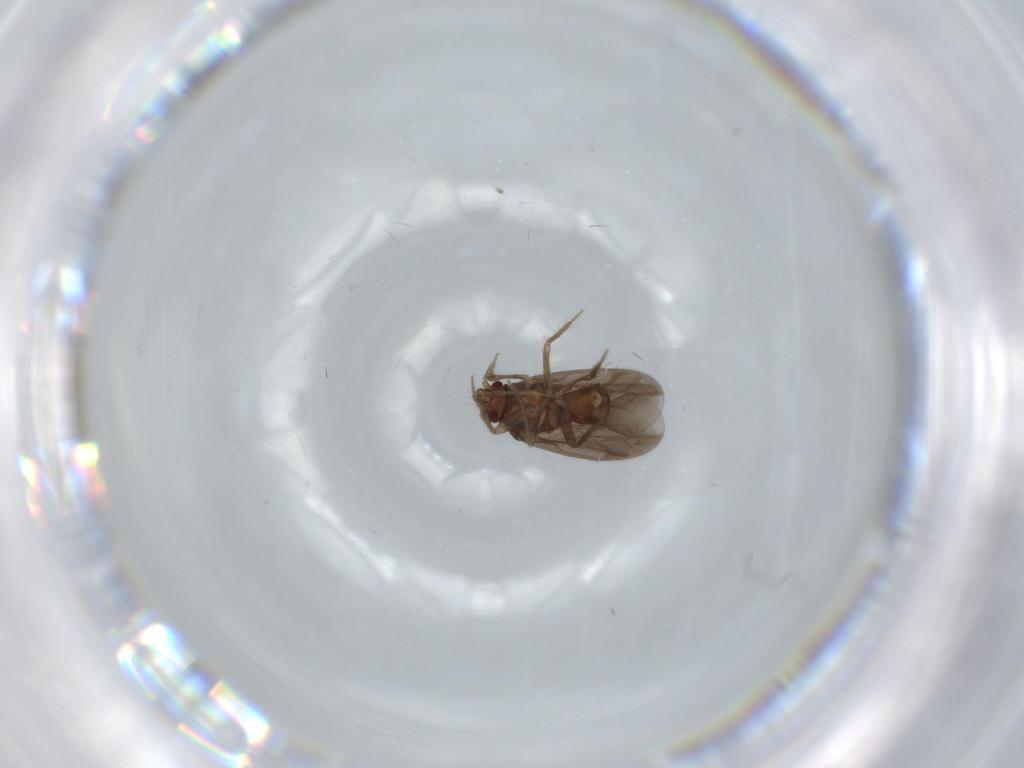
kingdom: Animalia
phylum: Arthropoda
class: Insecta
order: Hemiptera
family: Ceratocombidae
